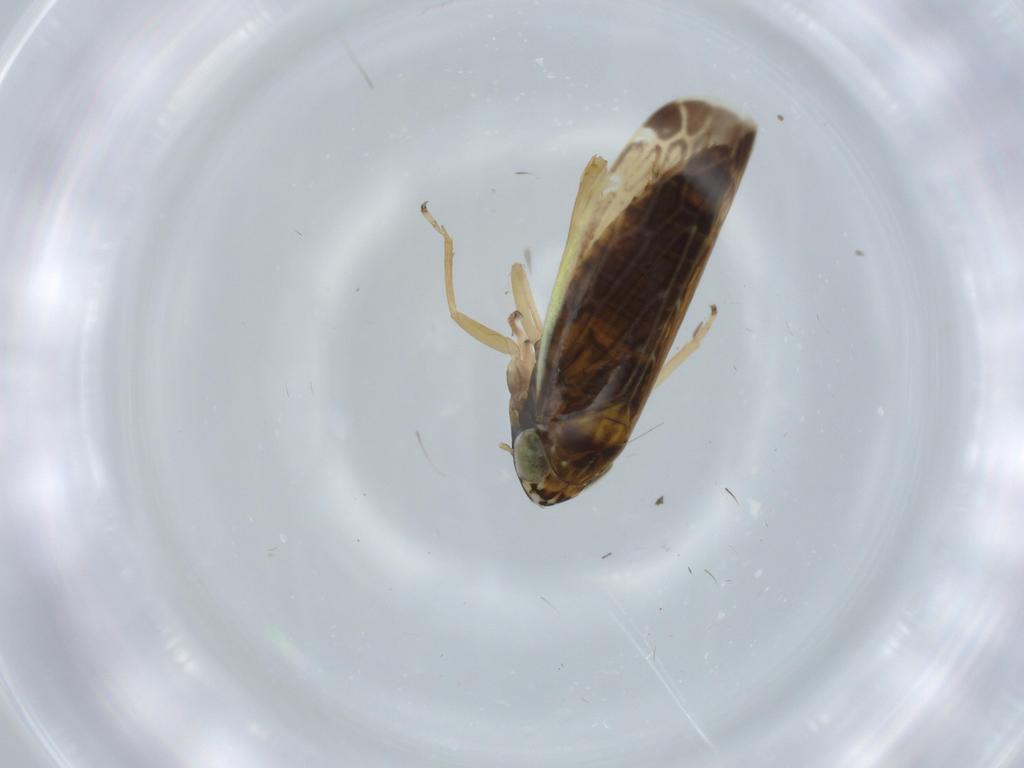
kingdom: Animalia
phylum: Arthropoda
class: Insecta
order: Hemiptera
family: Cicadellidae
